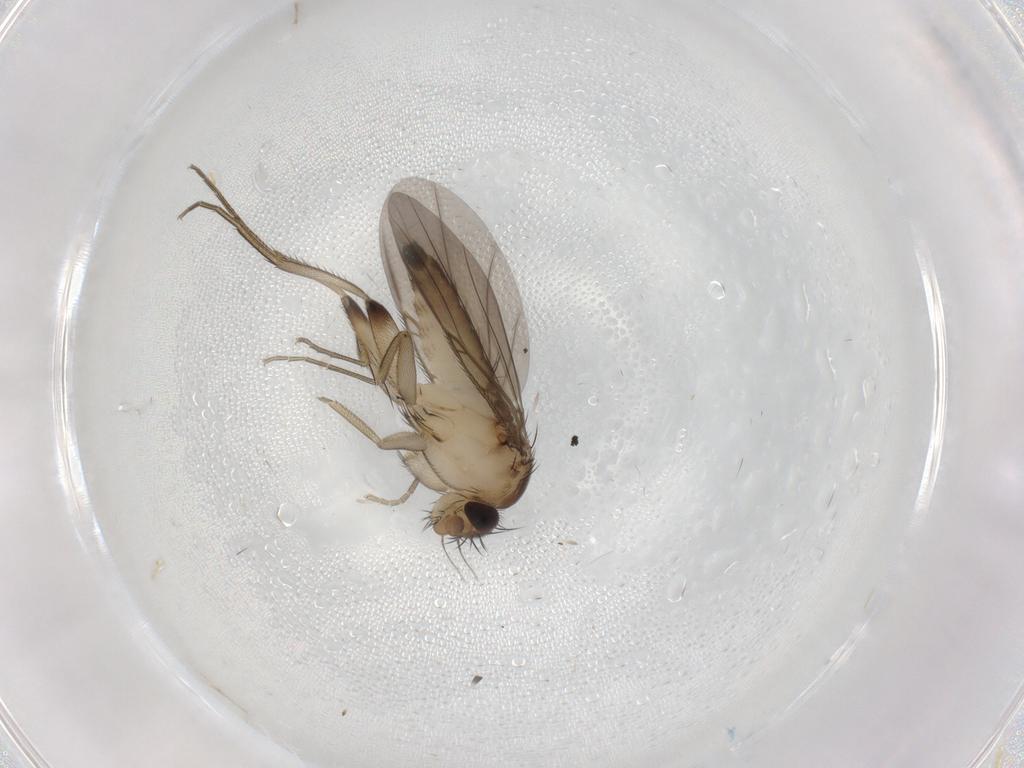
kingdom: Animalia
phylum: Arthropoda
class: Insecta
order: Diptera
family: Phoridae
